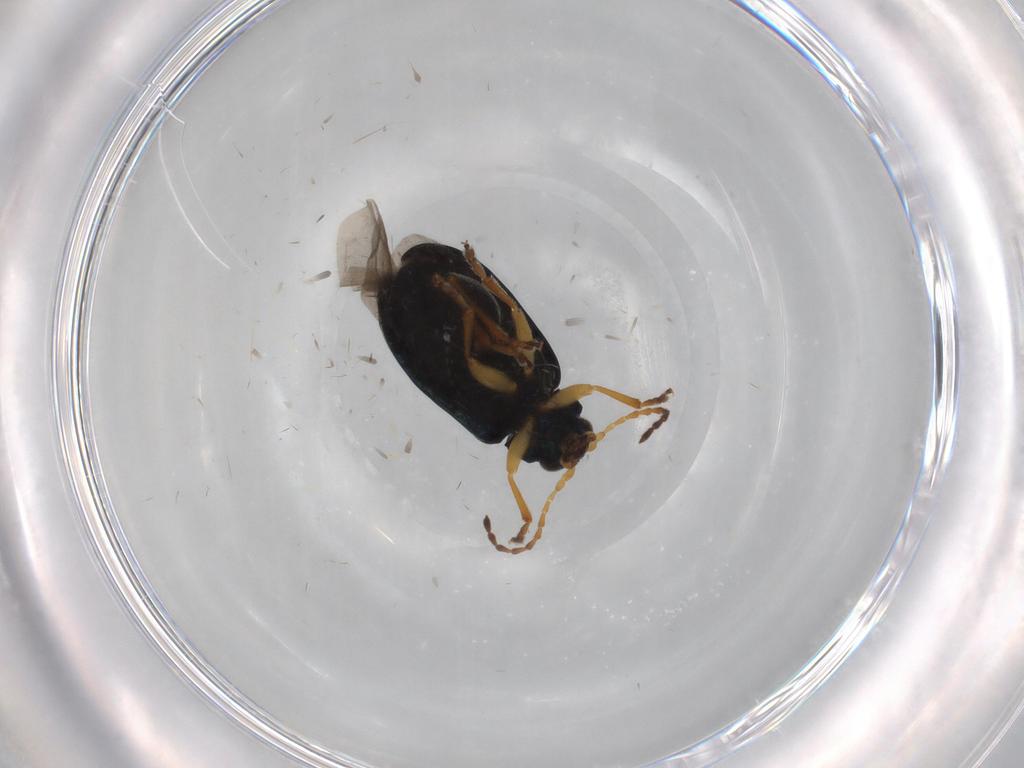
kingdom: Animalia
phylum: Arthropoda
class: Insecta
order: Coleoptera
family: Chrysomelidae
